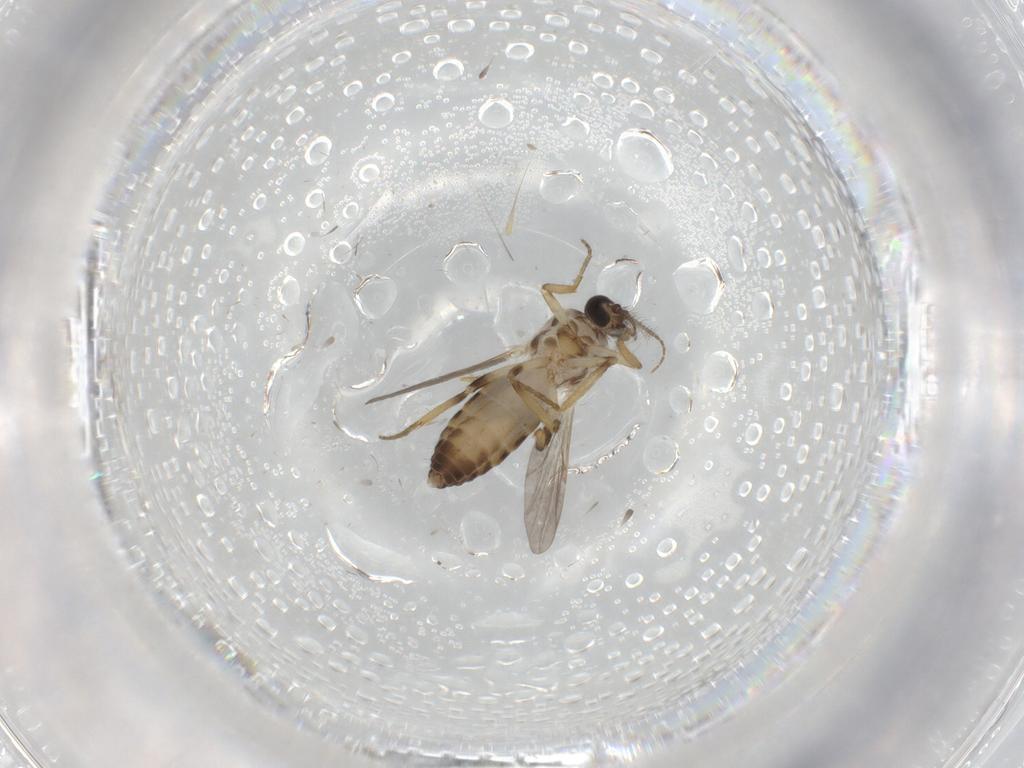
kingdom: Animalia
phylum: Arthropoda
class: Insecta
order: Diptera
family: Ceratopogonidae
